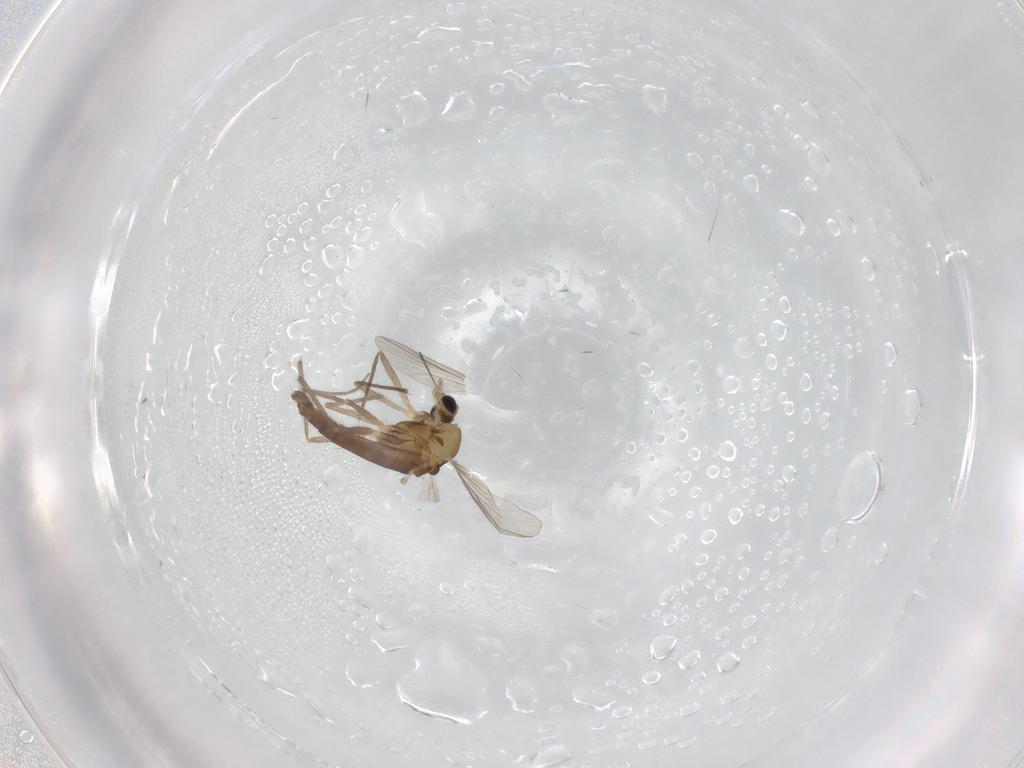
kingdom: Animalia
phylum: Arthropoda
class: Insecta
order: Diptera
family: Chironomidae
